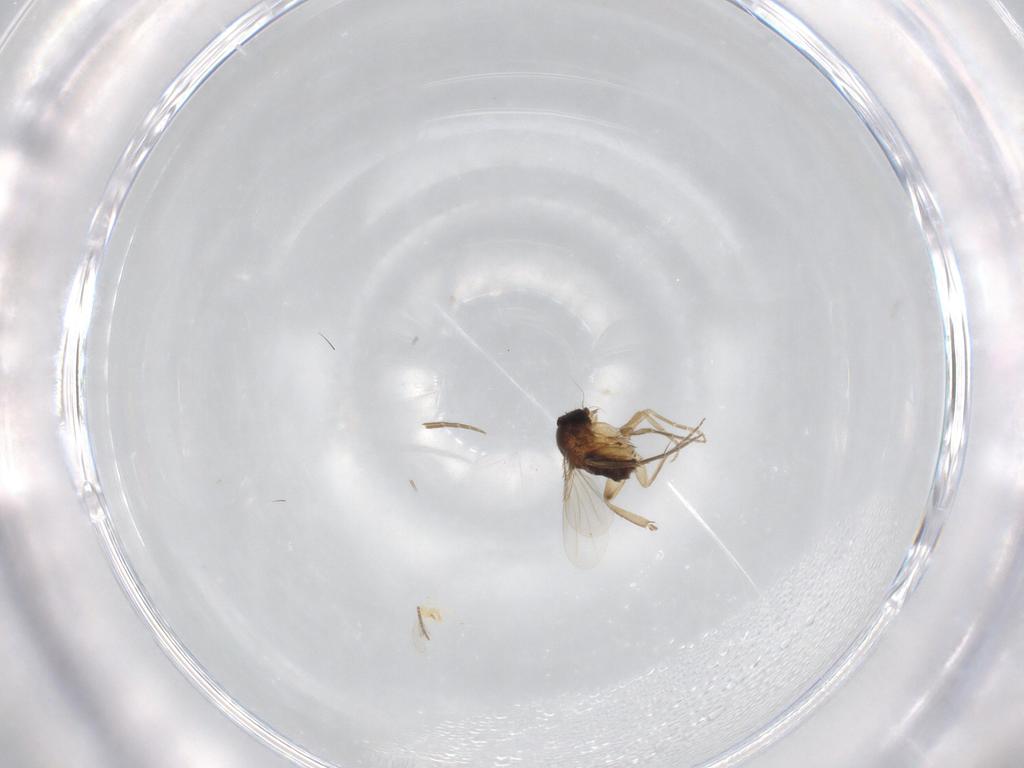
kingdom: Animalia
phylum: Arthropoda
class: Insecta
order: Diptera
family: Phoridae
